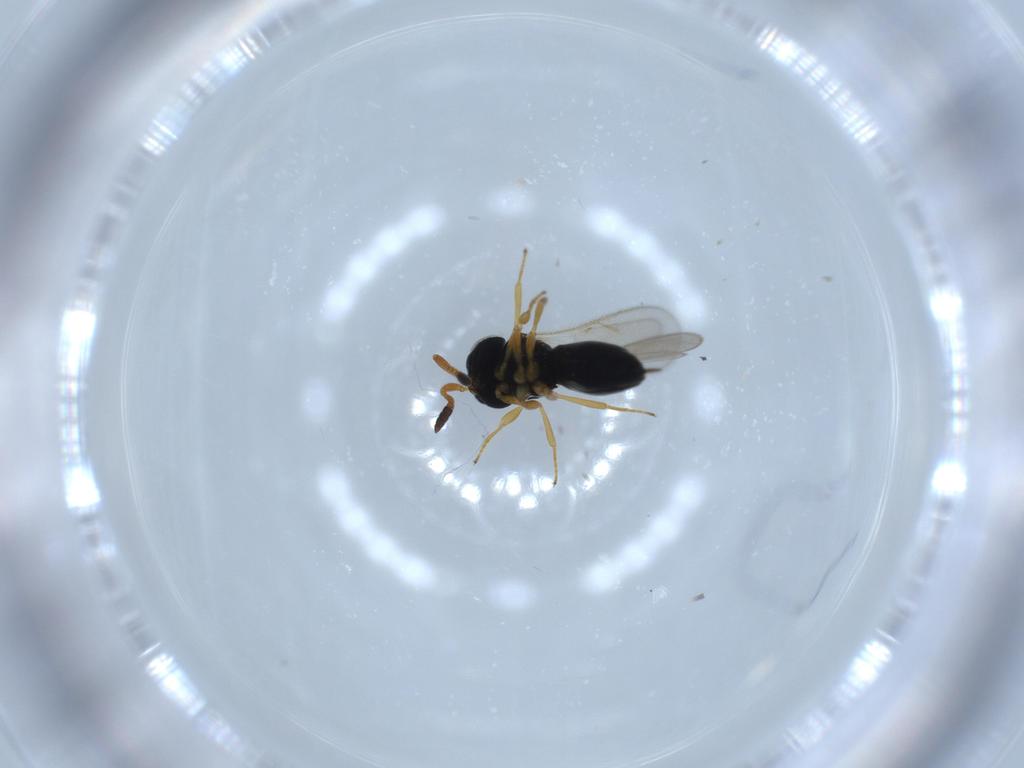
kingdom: Animalia
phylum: Arthropoda
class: Insecta
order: Hymenoptera
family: Scelionidae
